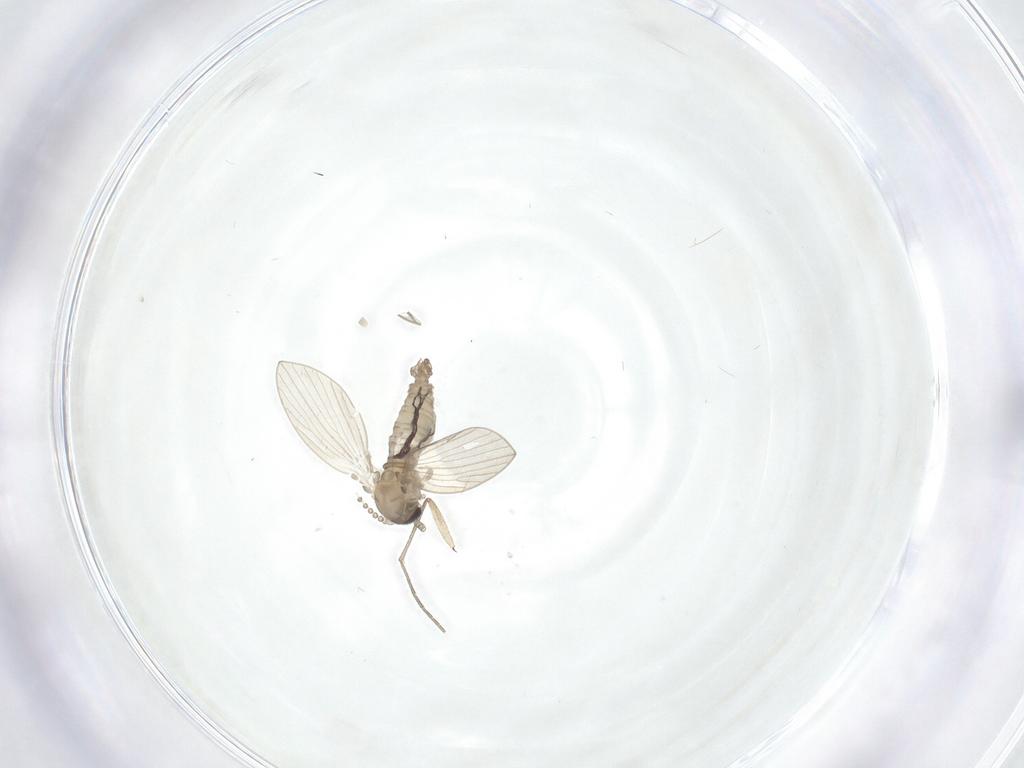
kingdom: Animalia
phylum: Arthropoda
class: Insecta
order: Diptera
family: Psychodidae
